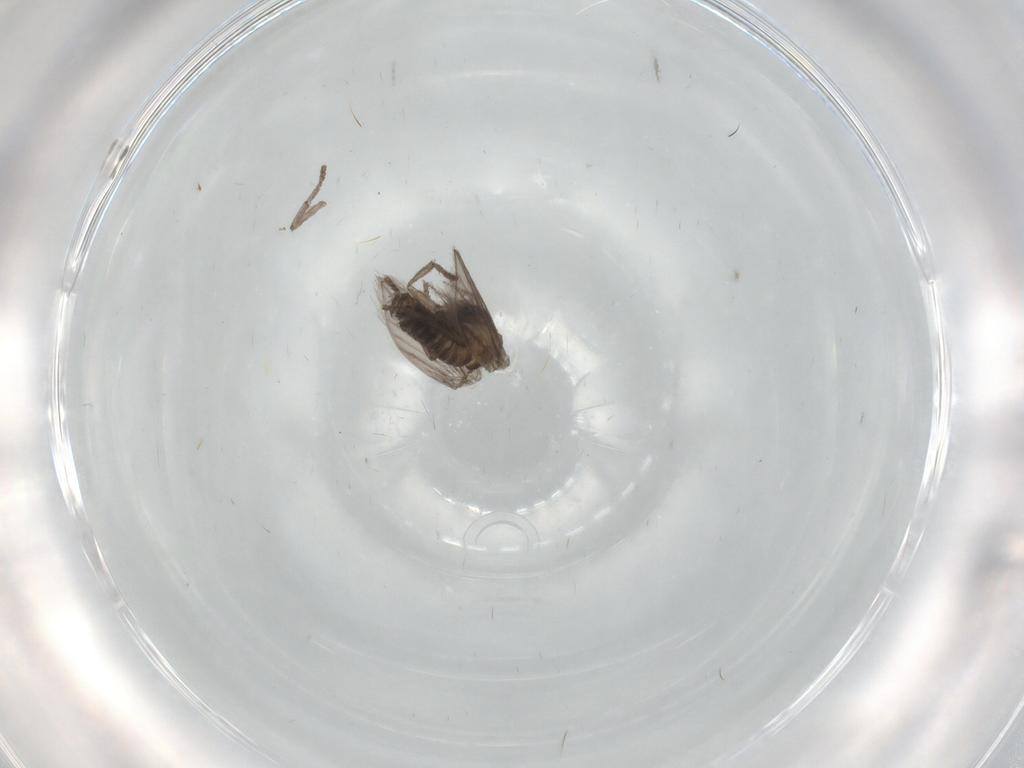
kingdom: Animalia
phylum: Arthropoda
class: Insecta
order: Diptera
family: Psychodidae
